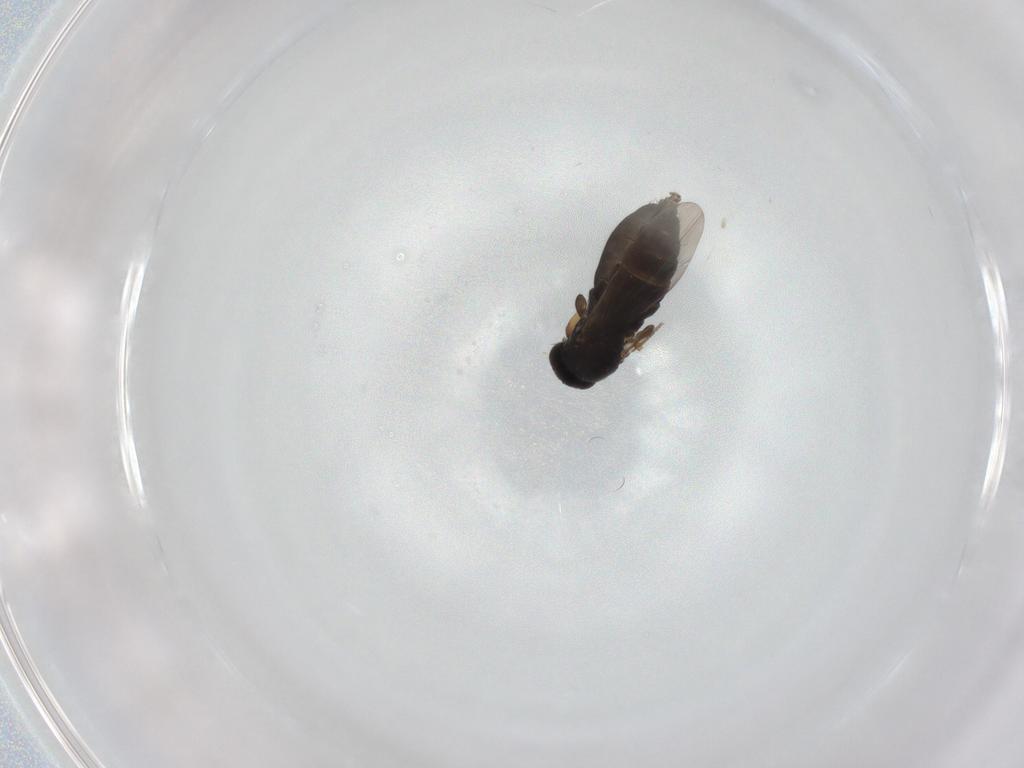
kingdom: Animalia
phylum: Arthropoda
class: Insecta
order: Diptera
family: Phoridae
